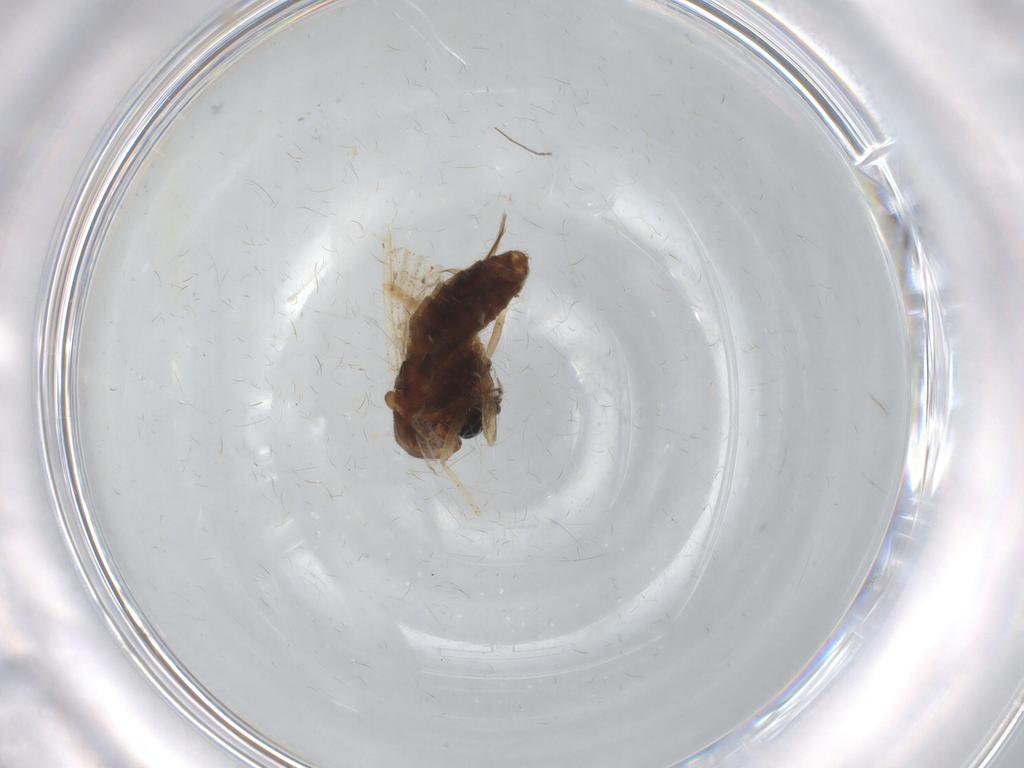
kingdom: Animalia
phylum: Arthropoda
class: Insecta
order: Diptera
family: Chironomidae
